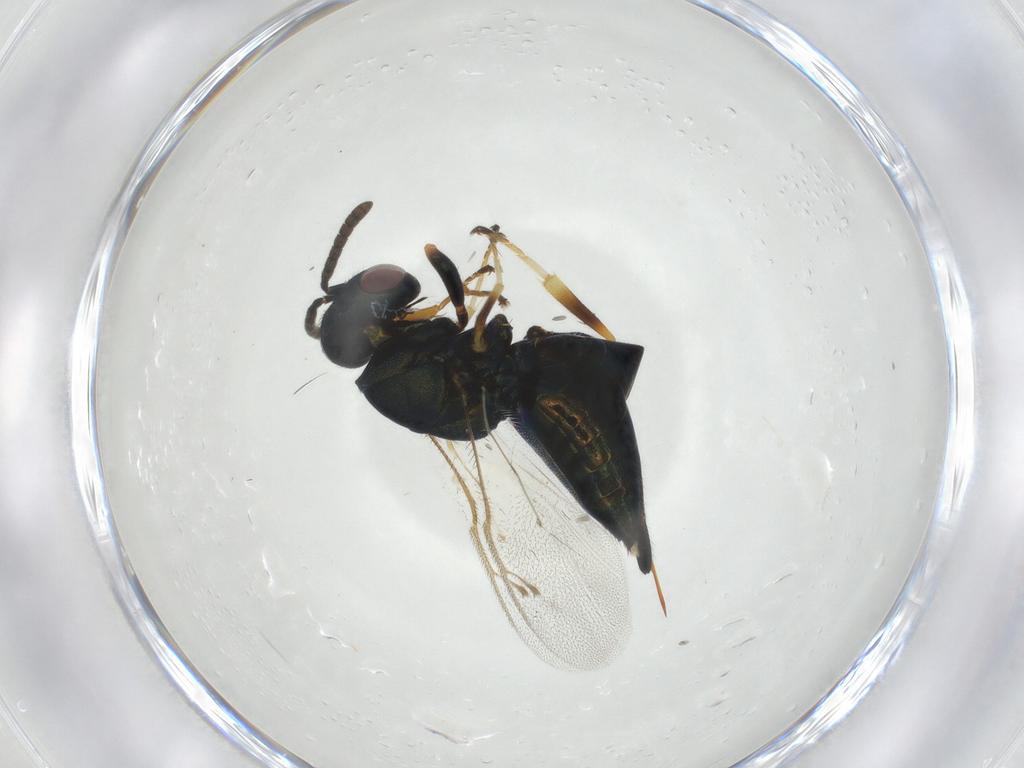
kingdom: Animalia
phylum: Arthropoda
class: Insecta
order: Hymenoptera
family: Pteromalidae
